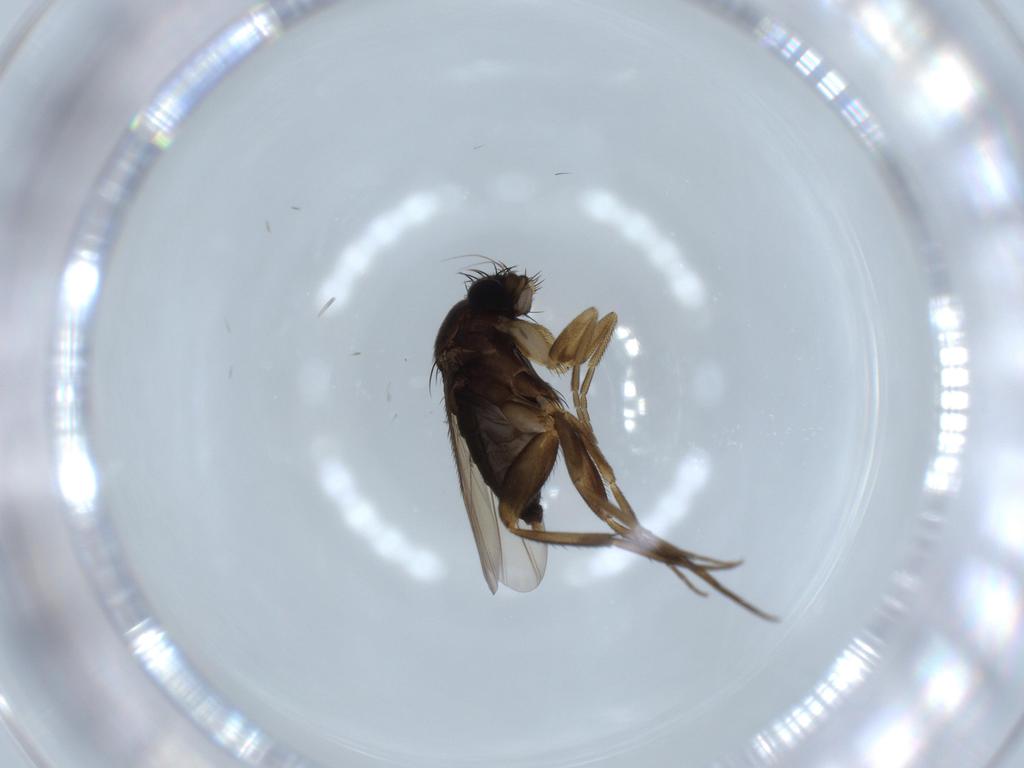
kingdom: Animalia
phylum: Arthropoda
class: Insecta
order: Diptera
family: Phoridae
